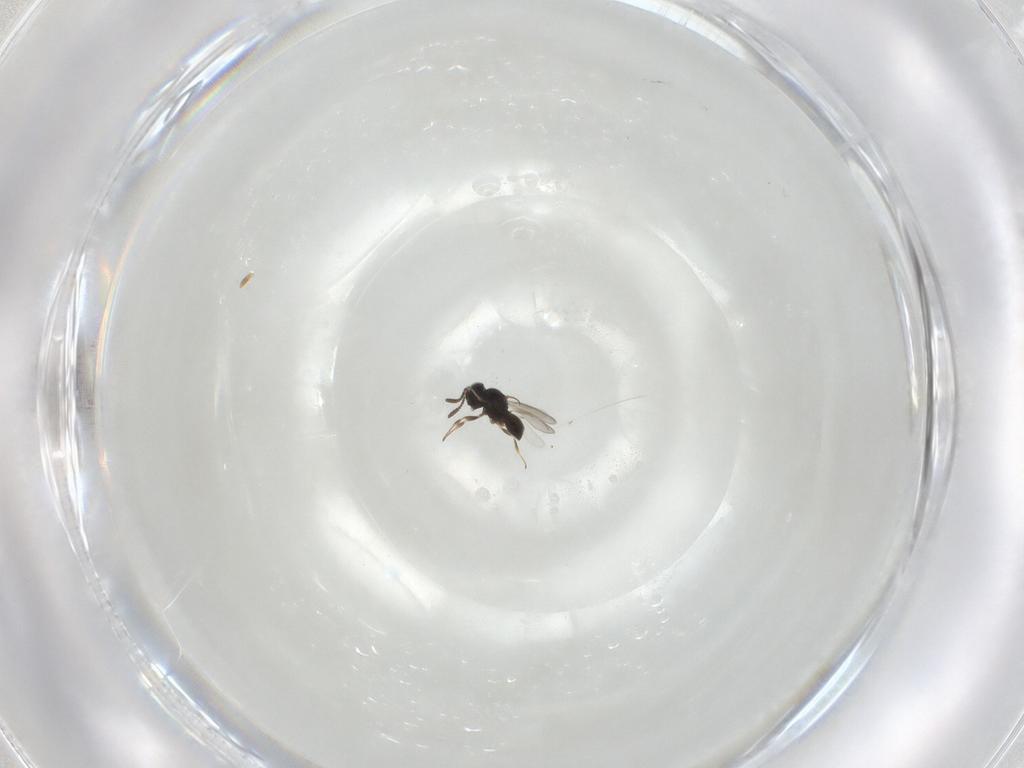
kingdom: Animalia
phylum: Arthropoda
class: Insecta
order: Hymenoptera
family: Scelionidae
